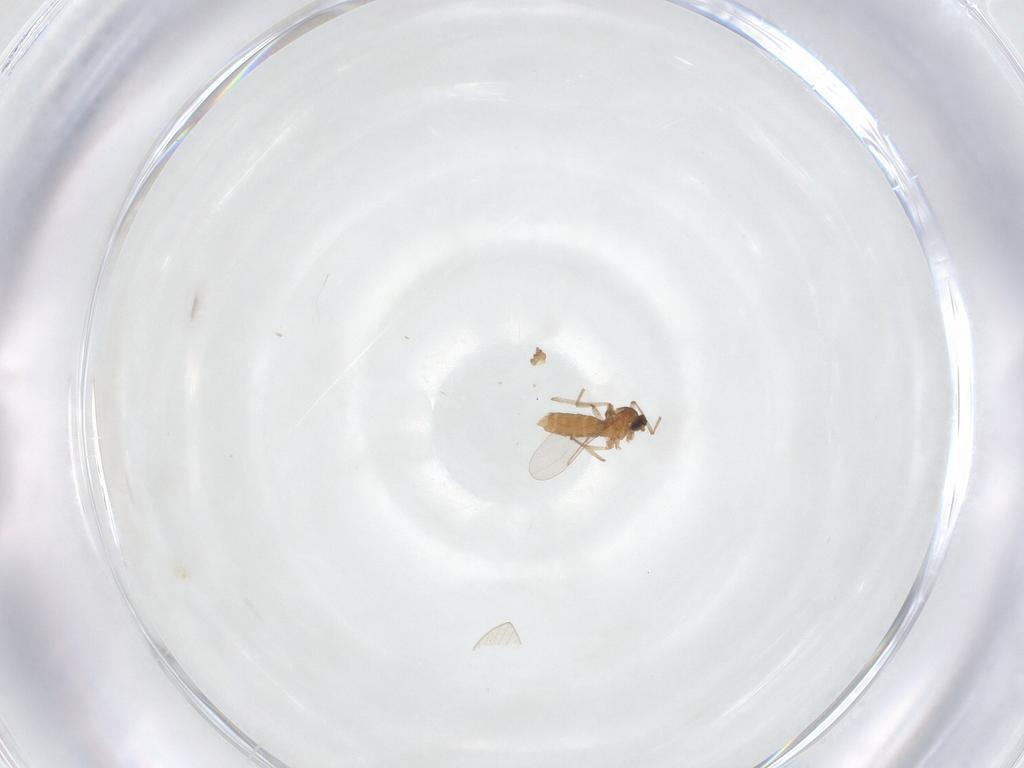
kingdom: Animalia
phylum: Arthropoda
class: Insecta
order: Diptera
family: Cecidomyiidae
